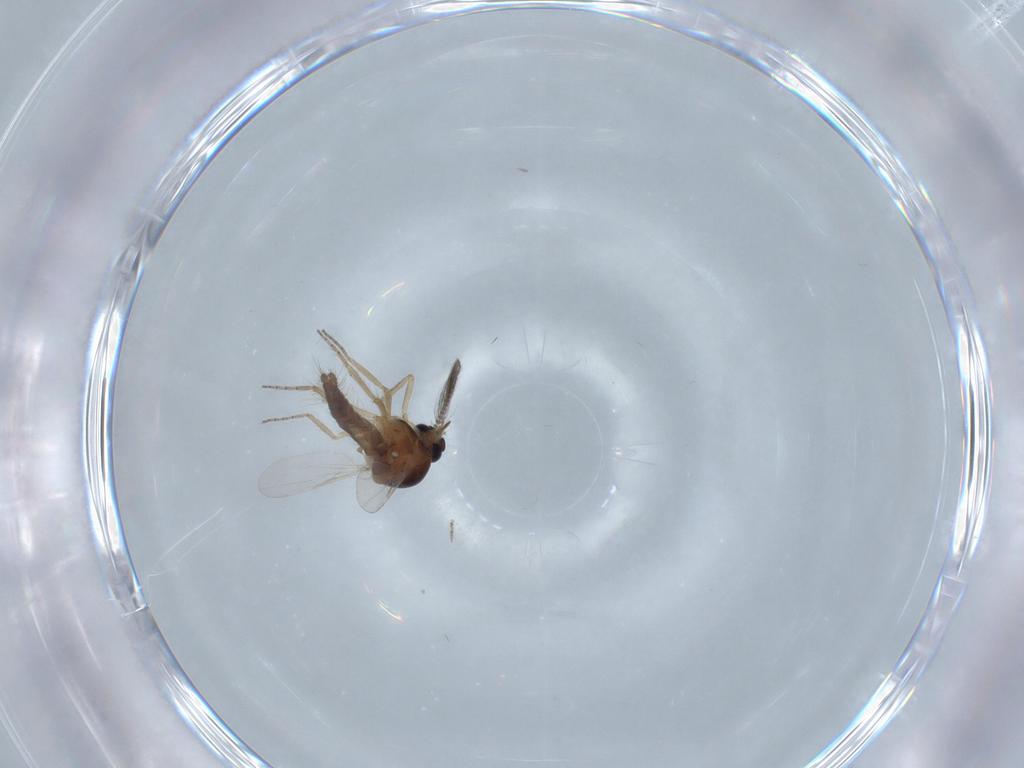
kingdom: Animalia
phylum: Arthropoda
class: Insecta
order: Diptera
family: Ceratopogonidae
